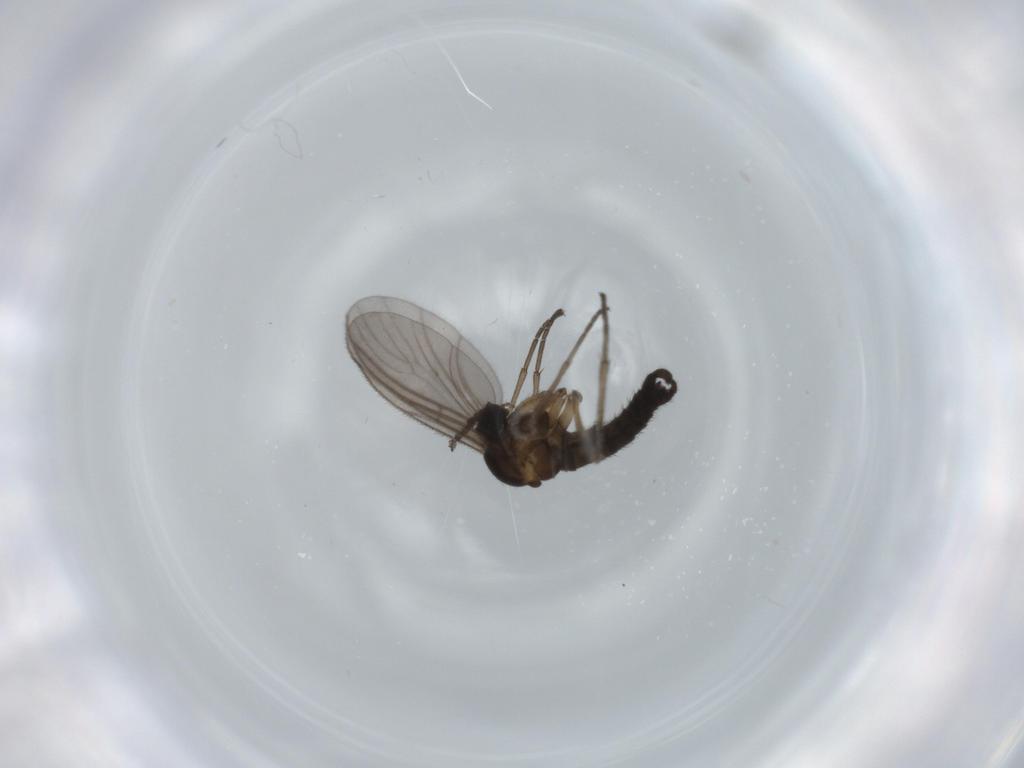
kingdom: Animalia
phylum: Arthropoda
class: Insecta
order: Diptera
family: Sciaridae
